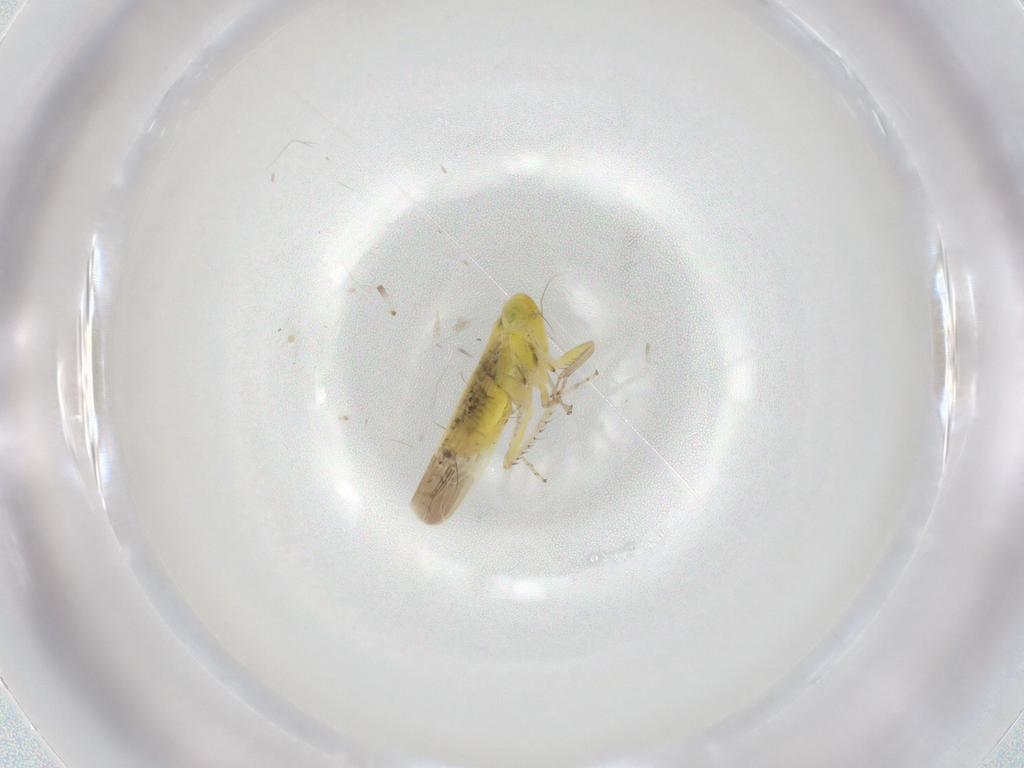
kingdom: Animalia
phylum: Arthropoda
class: Insecta
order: Hemiptera
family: Cicadellidae
